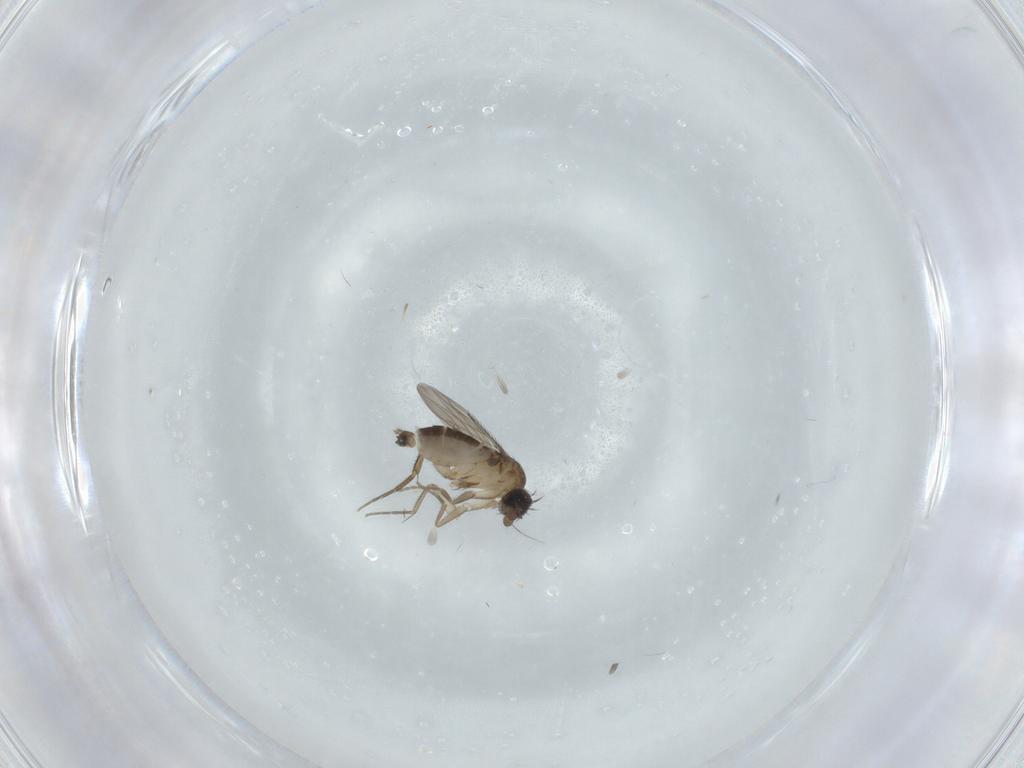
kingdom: Animalia
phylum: Arthropoda
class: Insecta
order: Diptera
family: Phoridae
